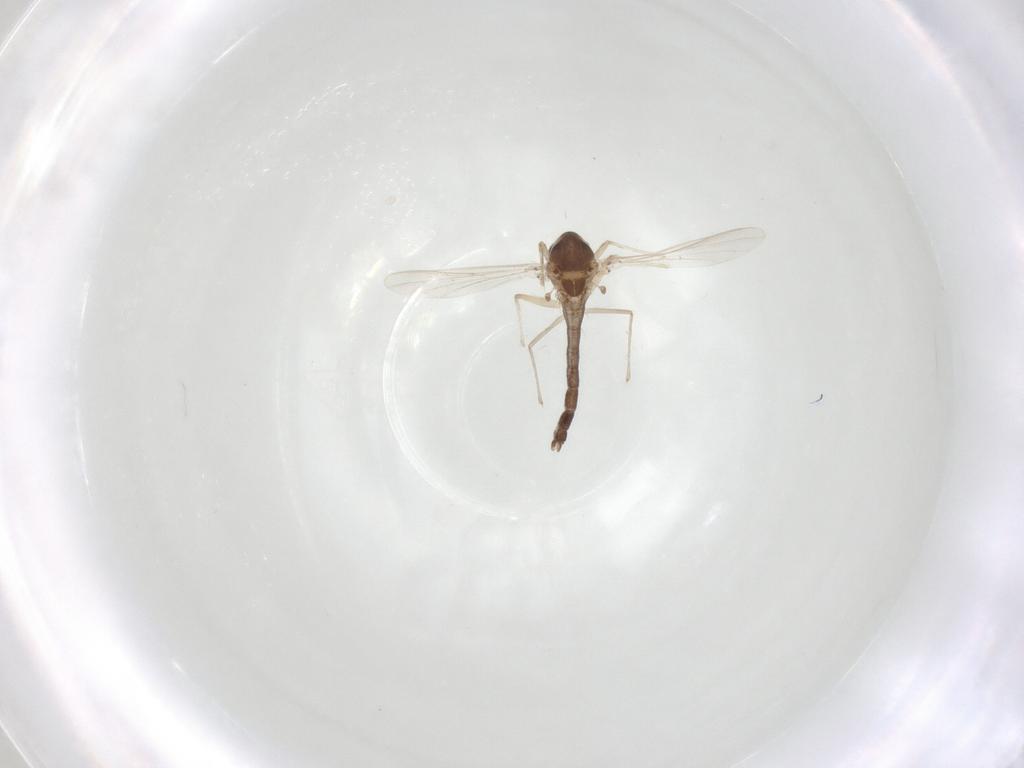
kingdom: Animalia
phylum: Arthropoda
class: Insecta
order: Diptera
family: Chironomidae
